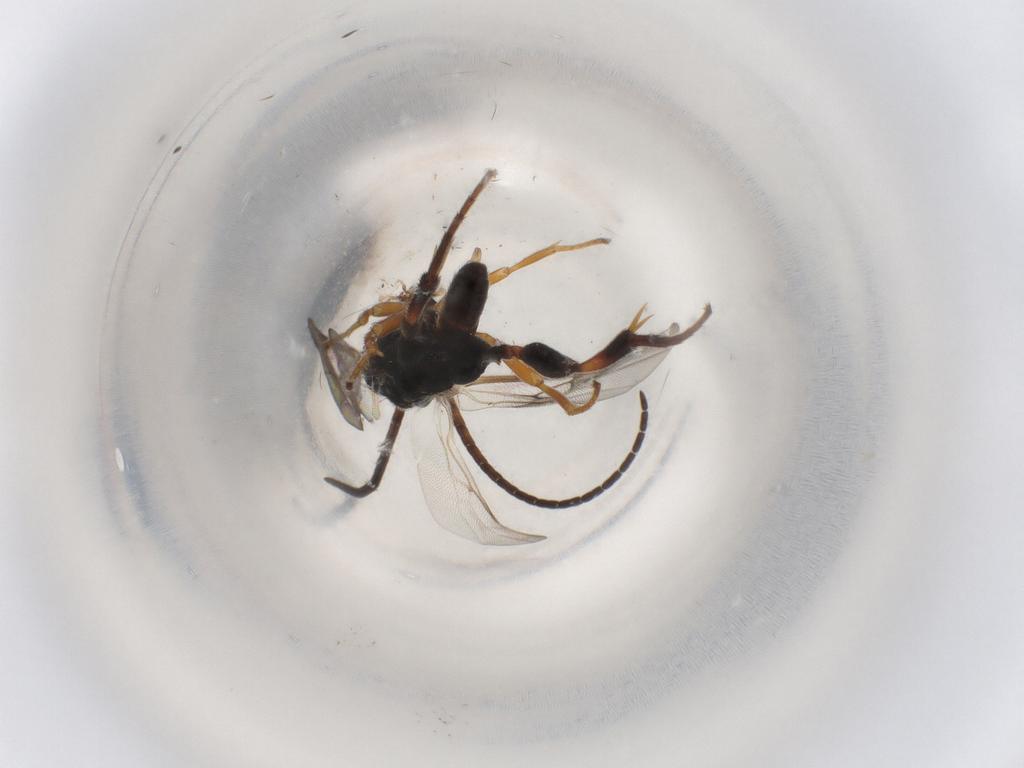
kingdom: Animalia
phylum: Arthropoda
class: Insecta
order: Hymenoptera
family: Braconidae
